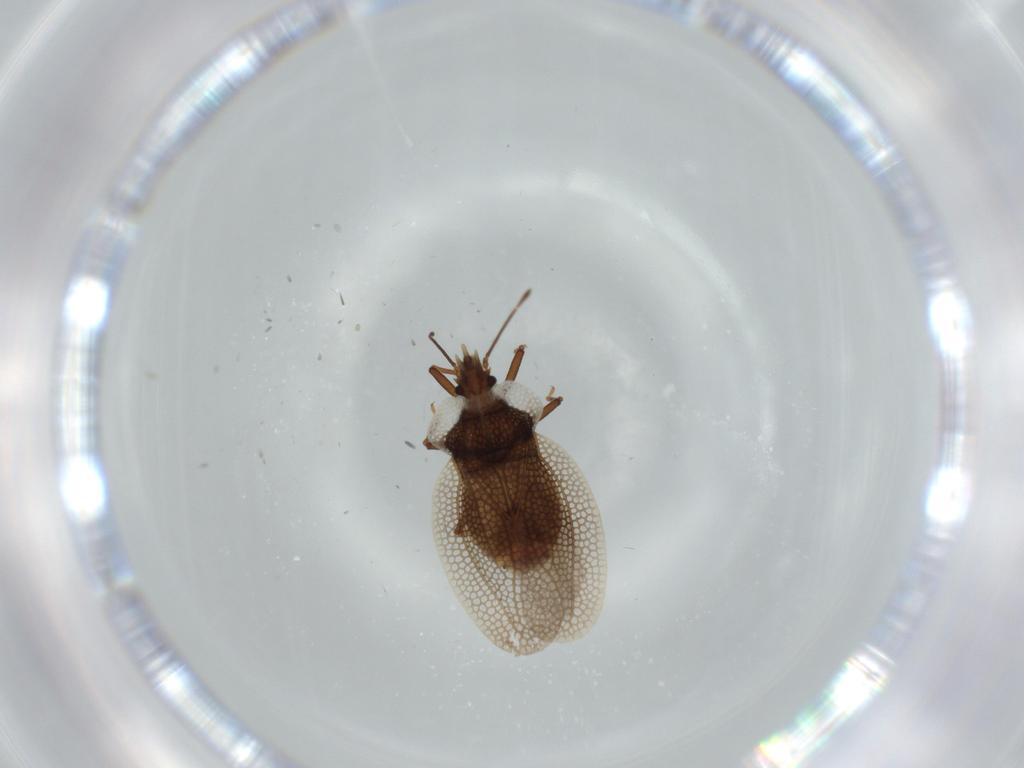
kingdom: Animalia
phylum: Arthropoda
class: Insecta
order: Hemiptera
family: Tingidae
